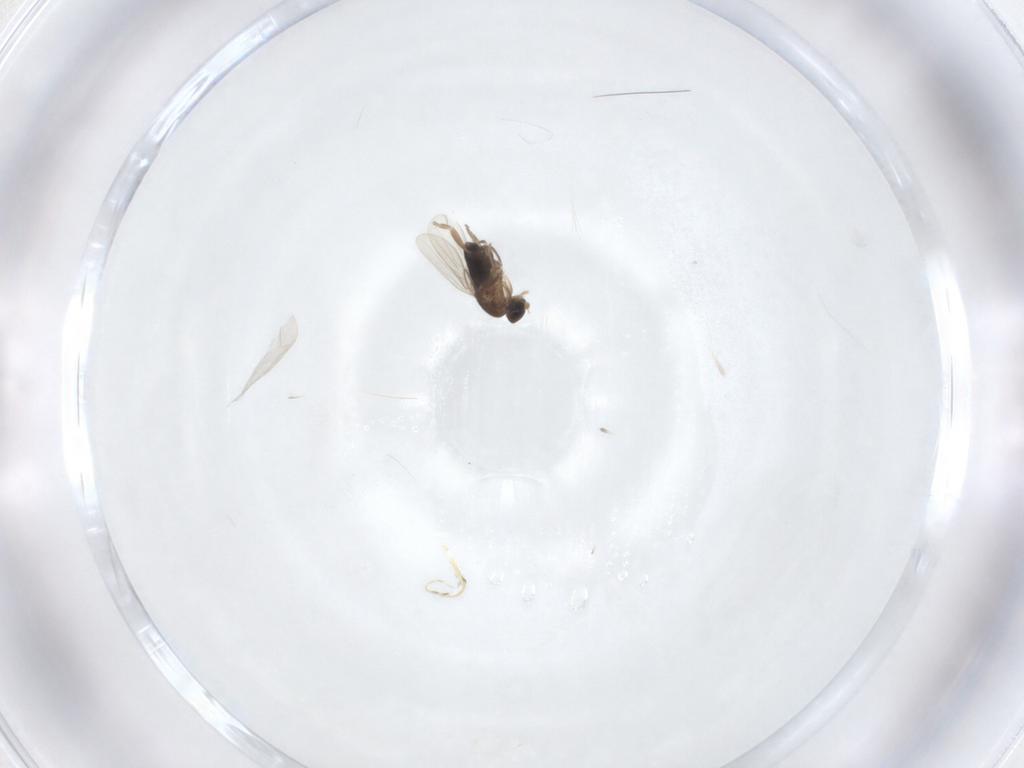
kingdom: Animalia
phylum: Arthropoda
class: Insecta
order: Diptera
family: Phoridae
